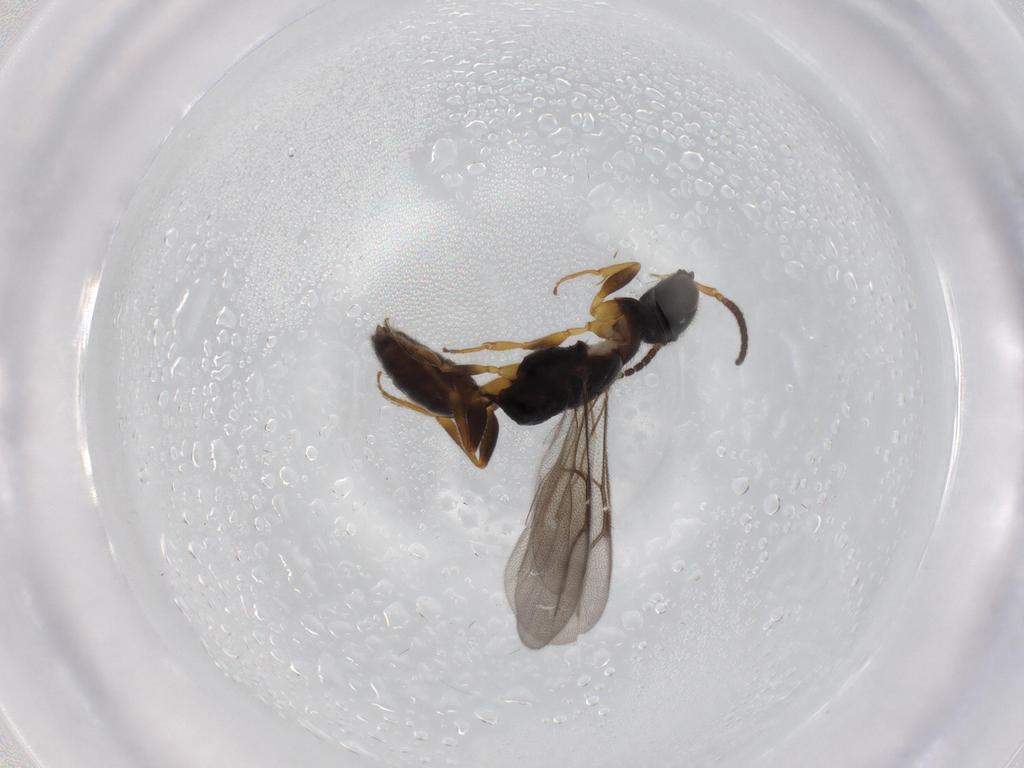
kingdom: Animalia
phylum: Arthropoda
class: Insecta
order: Hymenoptera
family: Bethylidae
